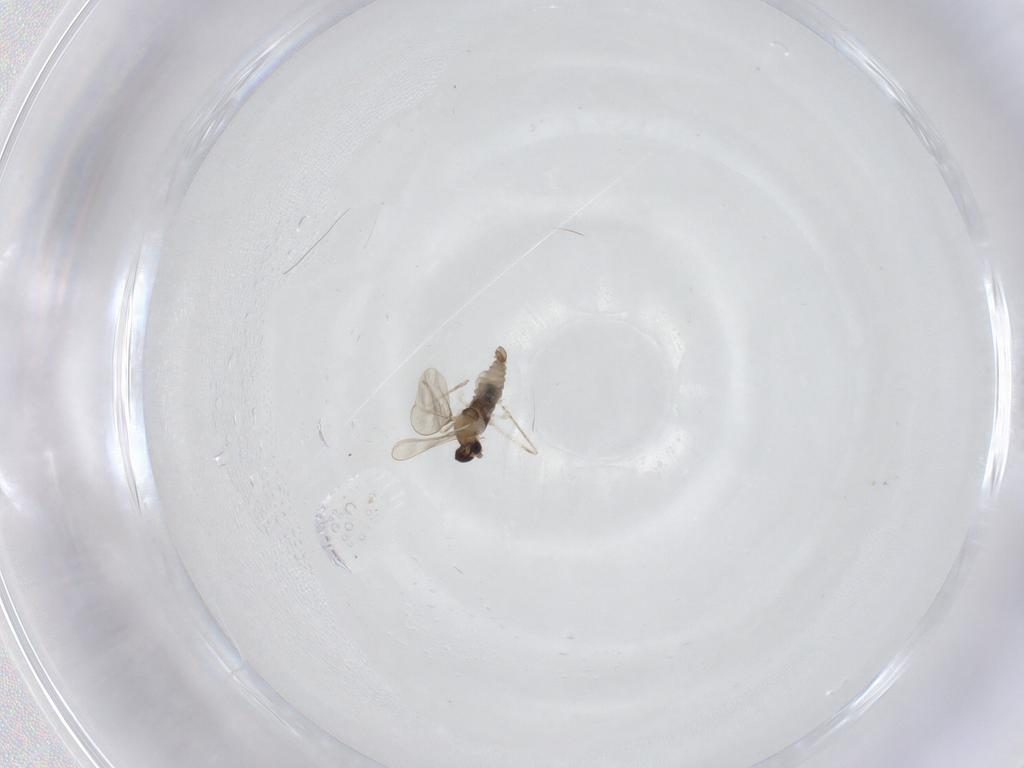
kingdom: Animalia
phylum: Arthropoda
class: Insecta
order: Diptera
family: Cecidomyiidae
